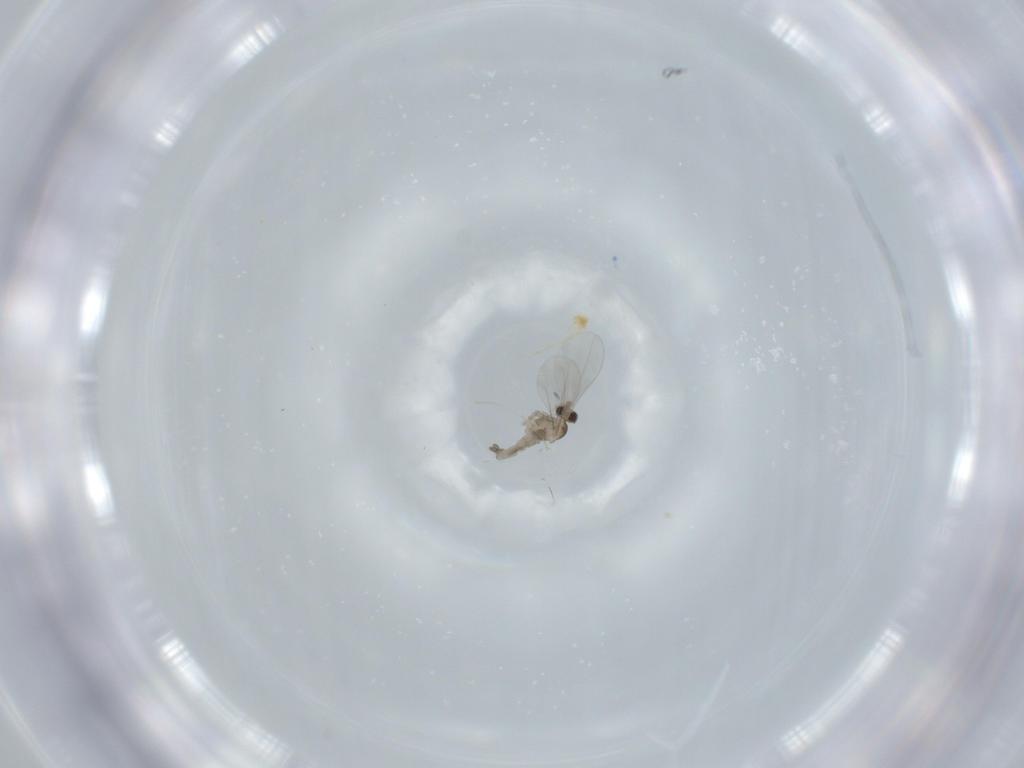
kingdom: Animalia
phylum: Arthropoda
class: Insecta
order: Diptera
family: Cecidomyiidae
